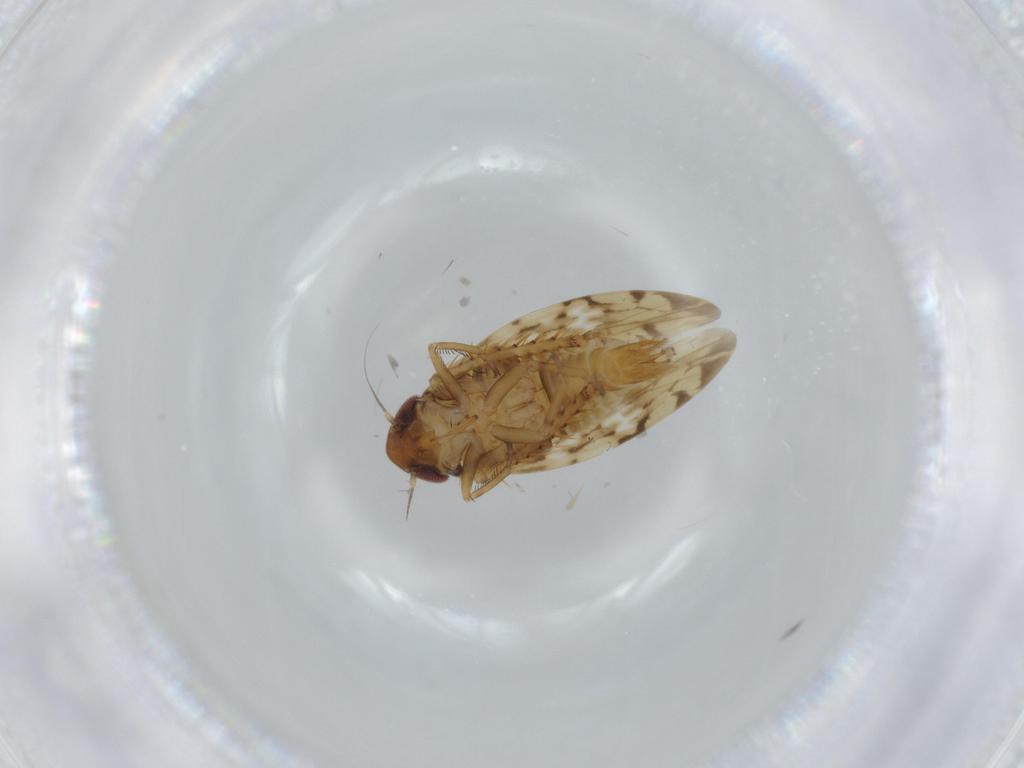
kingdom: Animalia
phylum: Arthropoda
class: Insecta
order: Hemiptera
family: Cicadellidae
